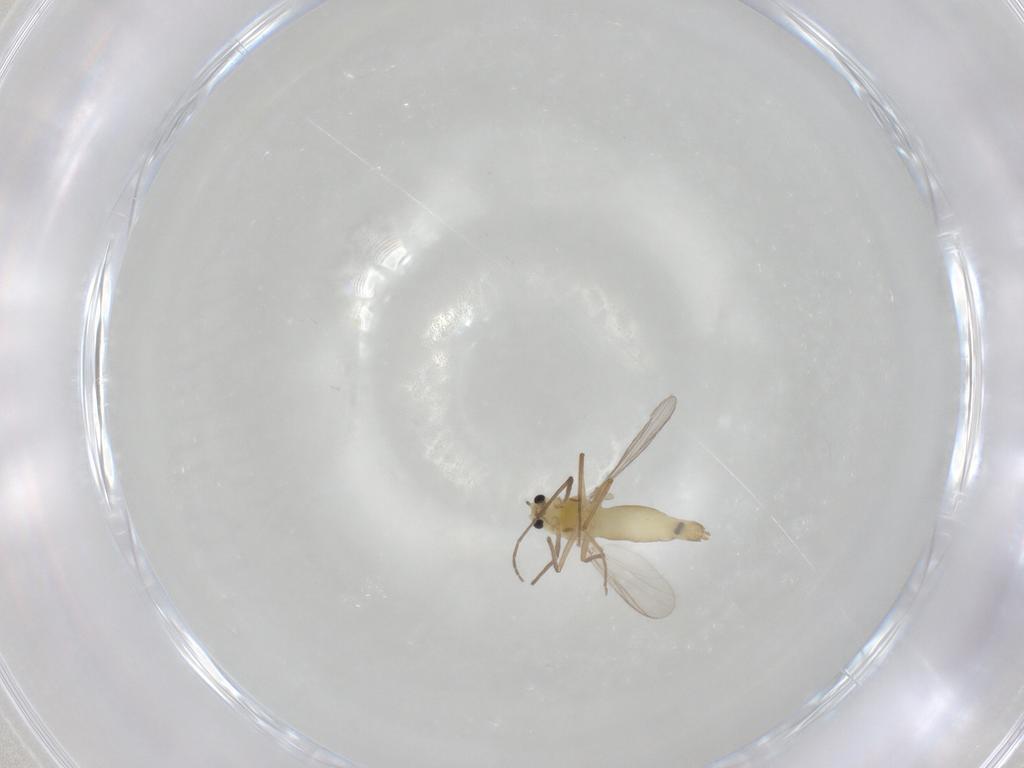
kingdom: Animalia
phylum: Arthropoda
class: Insecta
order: Diptera
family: Chironomidae
